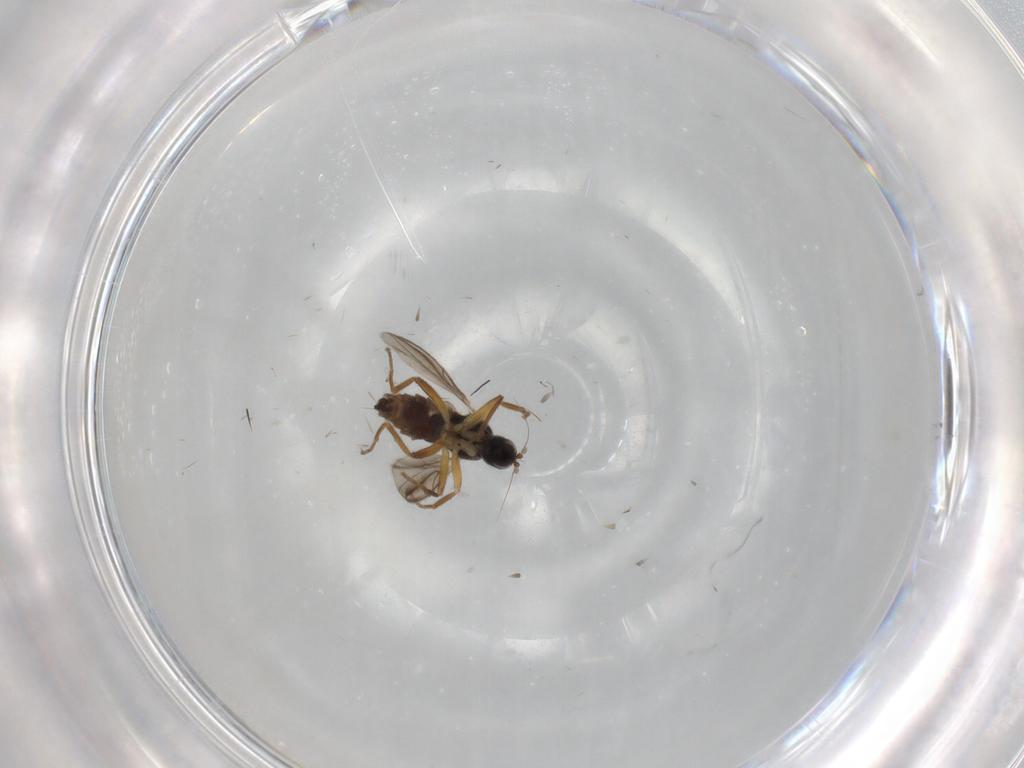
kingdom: Animalia
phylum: Arthropoda
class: Insecta
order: Diptera
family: Hybotidae
